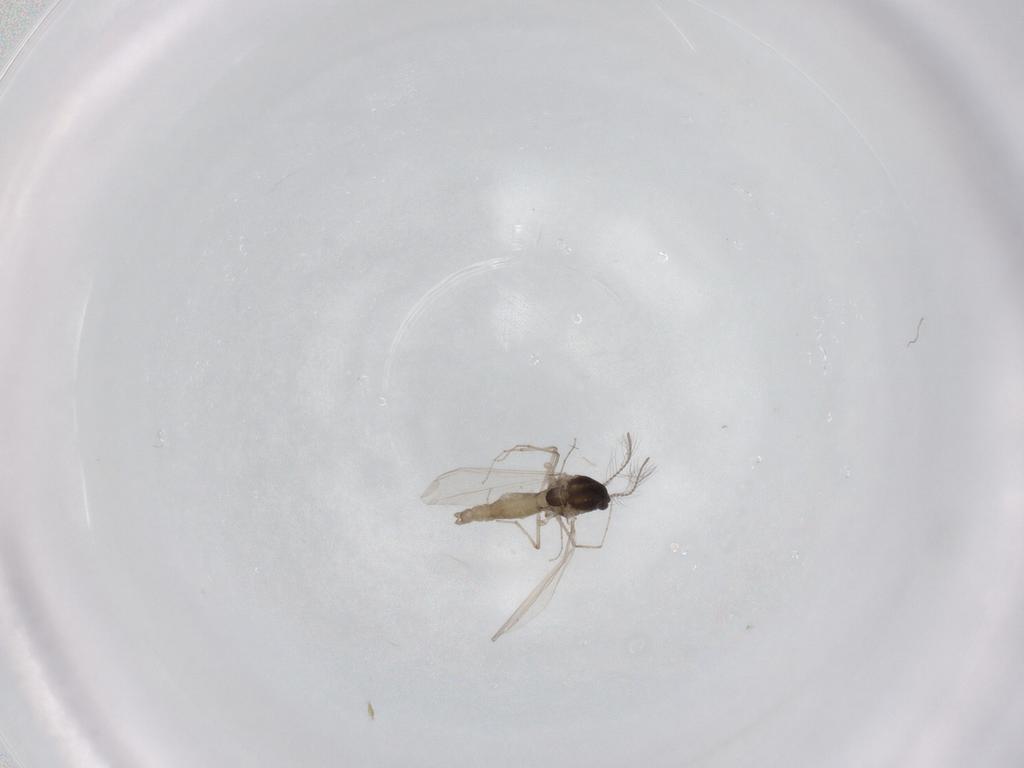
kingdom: Animalia
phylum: Arthropoda
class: Insecta
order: Diptera
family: Chironomidae
